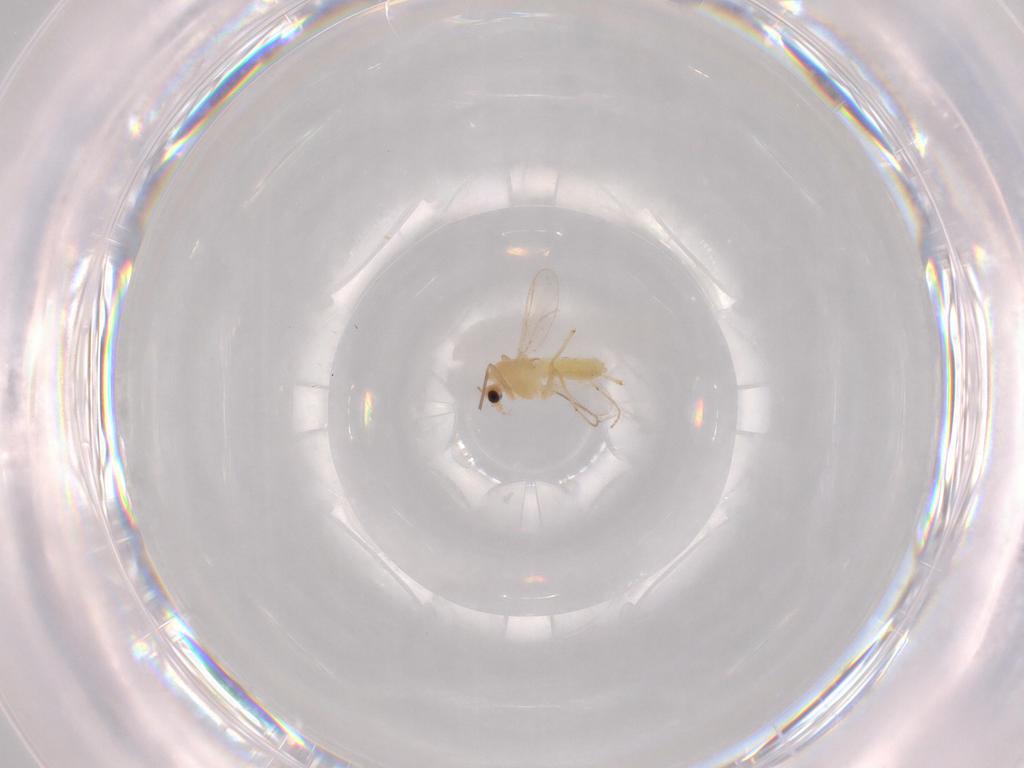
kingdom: Animalia
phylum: Arthropoda
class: Insecta
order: Diptera
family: Chironomidae
